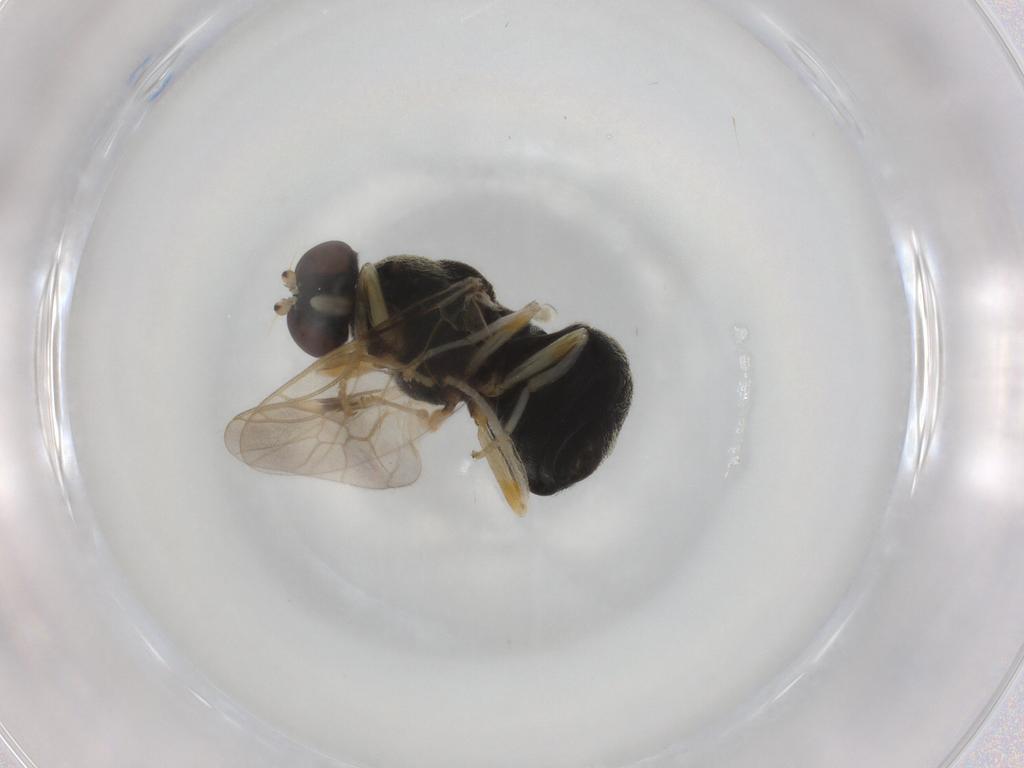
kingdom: Animalia
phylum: Arthropoda
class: Insecta
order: Diptera
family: Stratiomyidae
